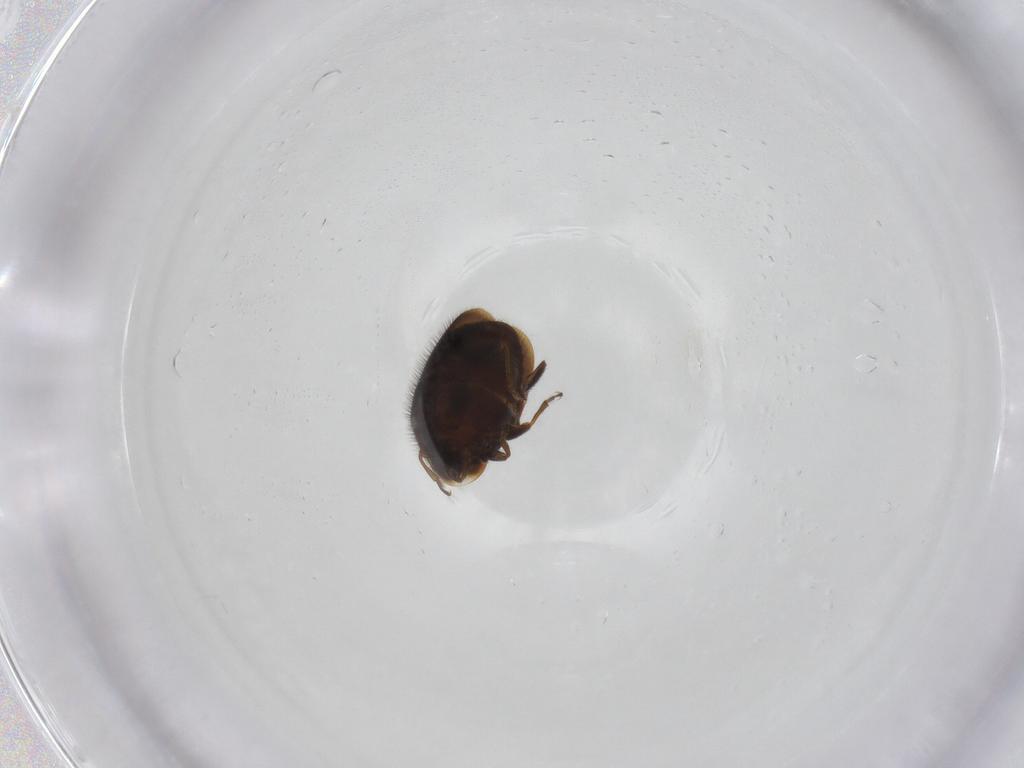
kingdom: Animalia
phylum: Arthropoda
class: Insecta
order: Coleoptera
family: Corylophidae
